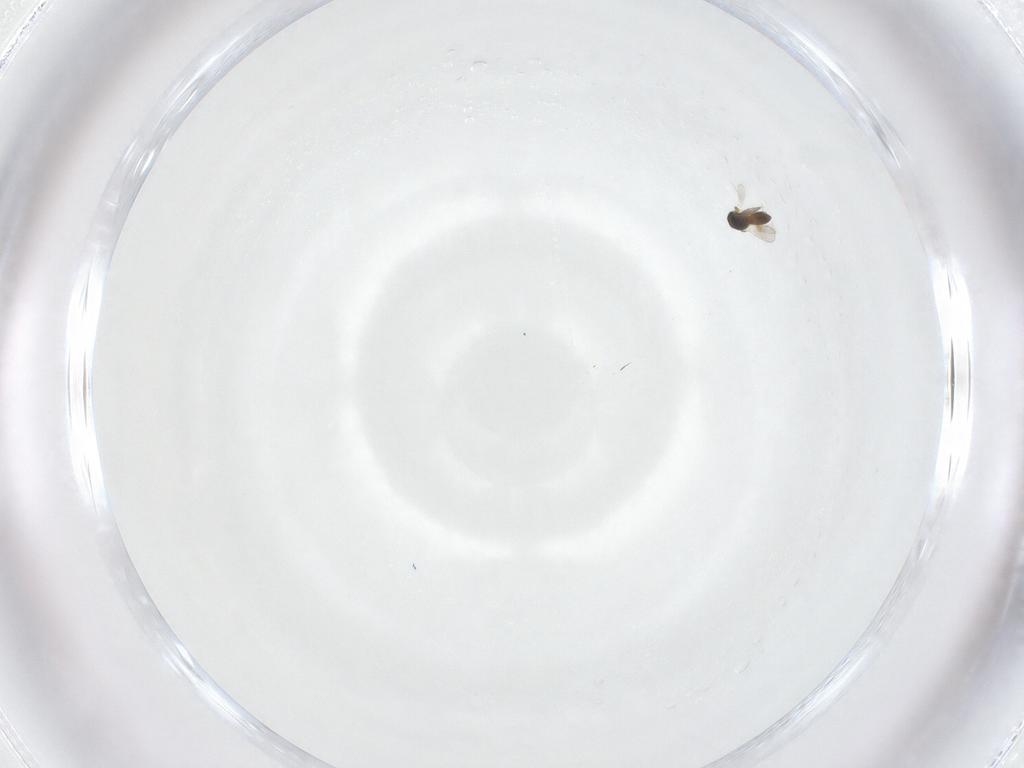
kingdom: Animalia
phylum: Arthropoda
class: Insecta
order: Hymenoptera
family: Platygastridae
